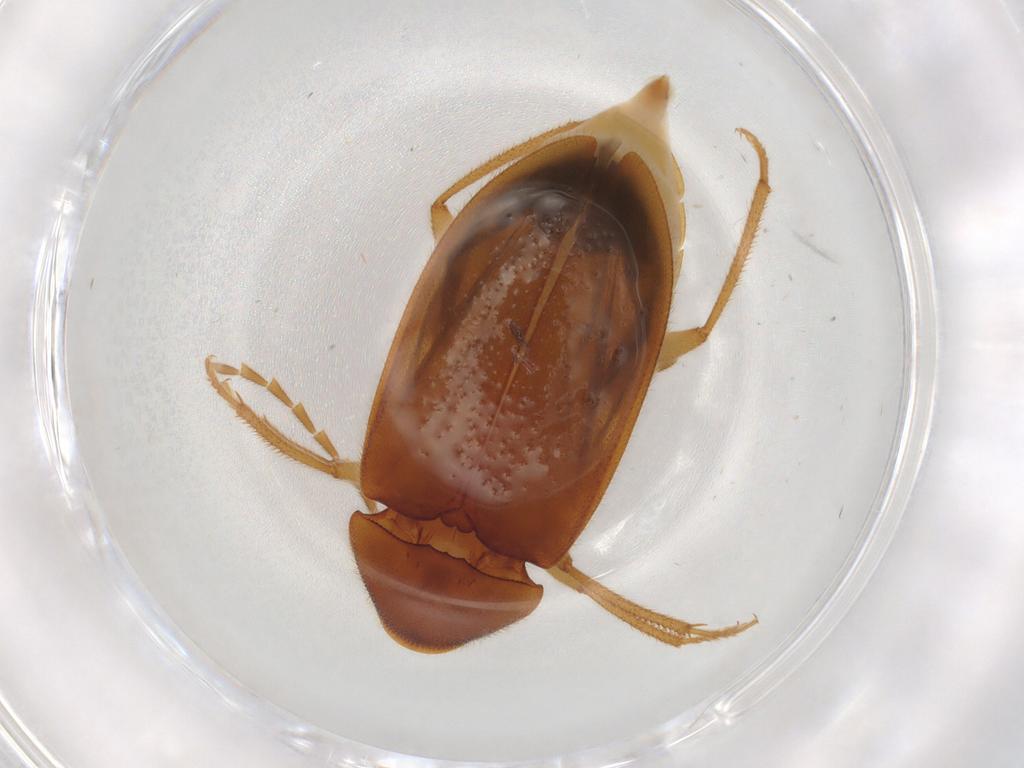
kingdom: Animalia
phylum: Arthropoda
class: Insecta
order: Coleoptera
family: Ptilodactylidae
